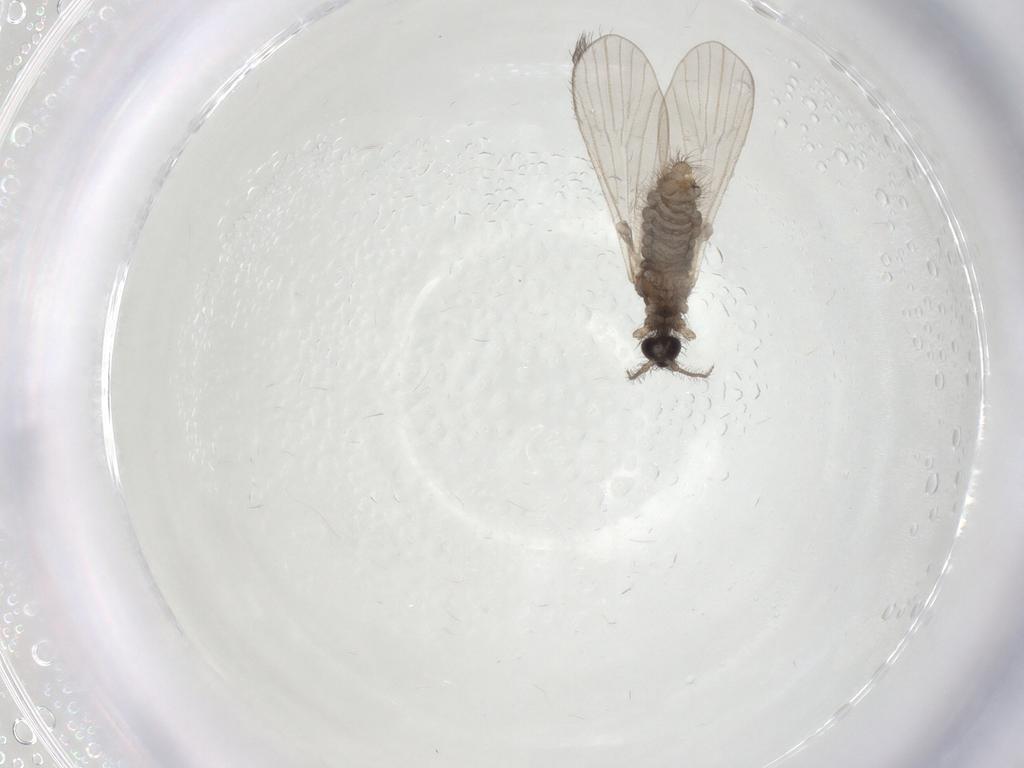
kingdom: Animalia
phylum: Arthropoda
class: Insecta
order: Diptera
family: Limoniidae
